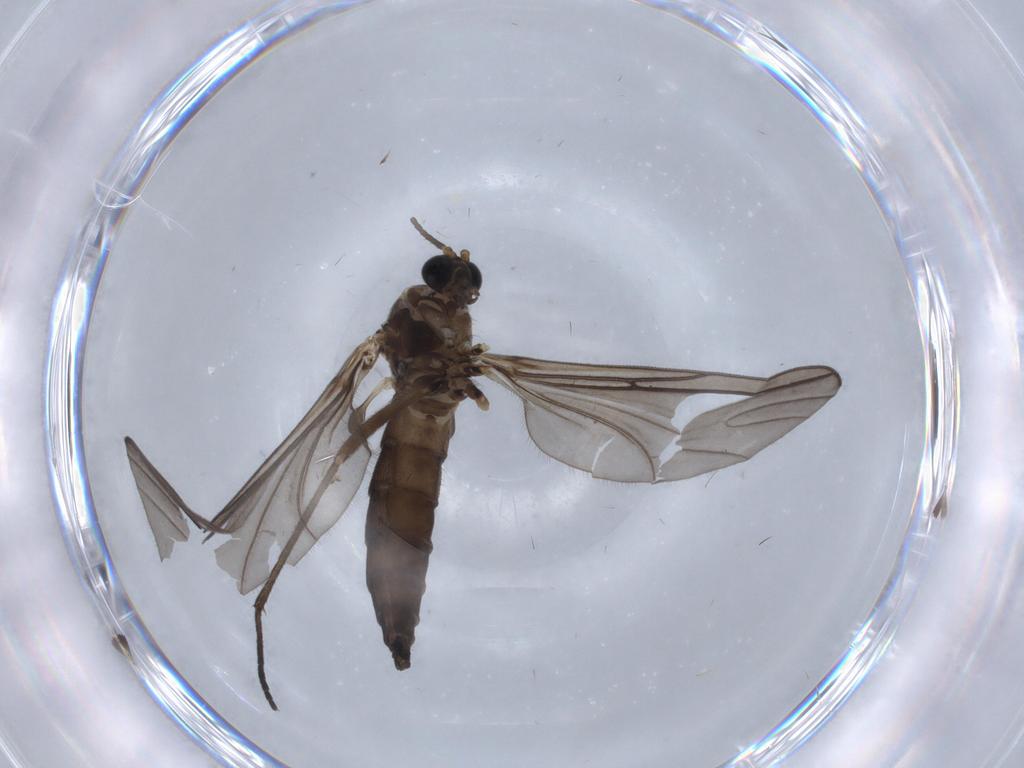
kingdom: Animalia
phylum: Arthropoda
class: Insecta
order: Diptera
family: Sciaridae
